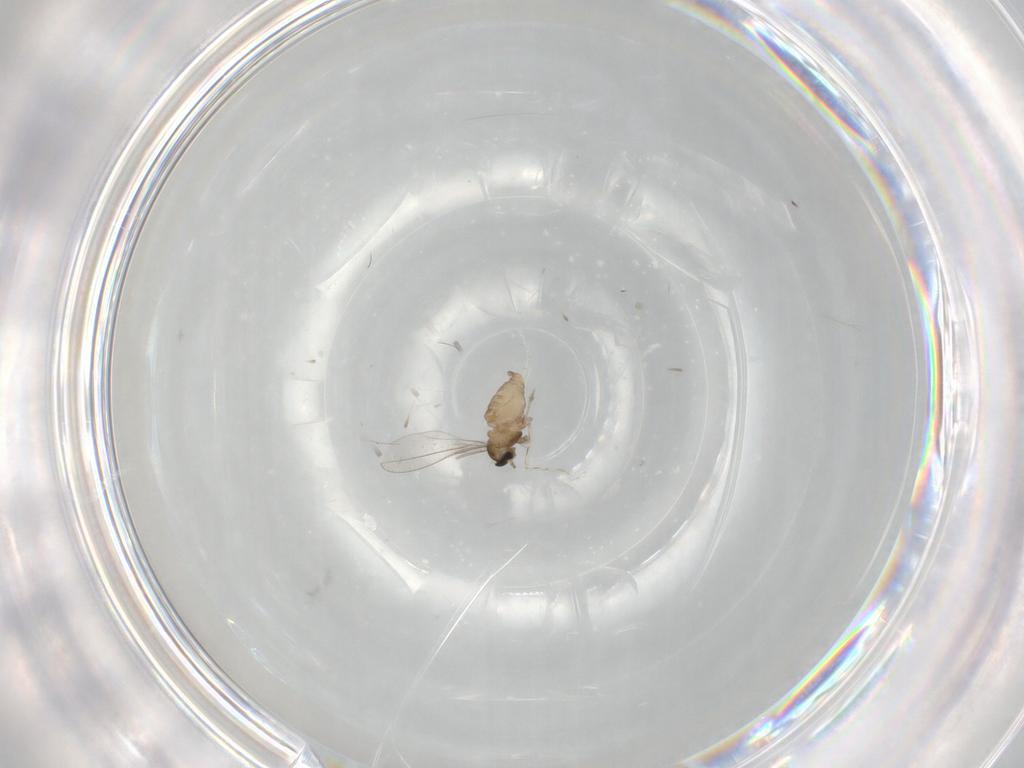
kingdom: Animalia
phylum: Arthropoda
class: Insecta
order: Diptera
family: Cecidomyiidae
